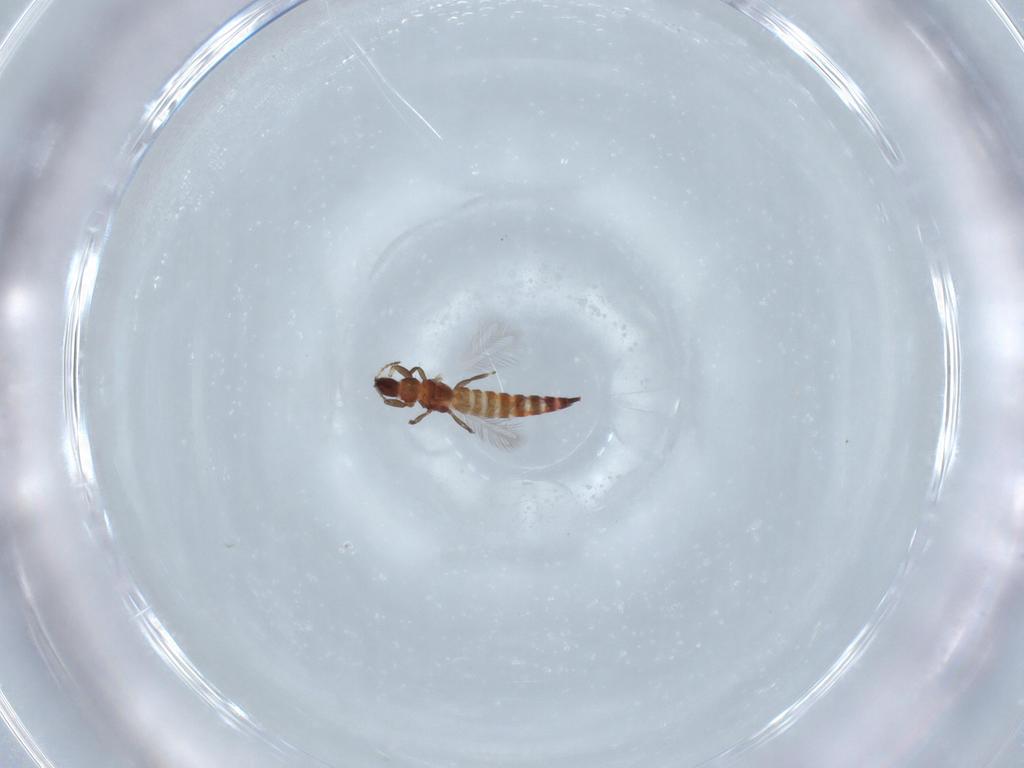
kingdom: Animalia
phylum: Arthropoda
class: Insecta
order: Thysanoptera
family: Phlaeothripidae
